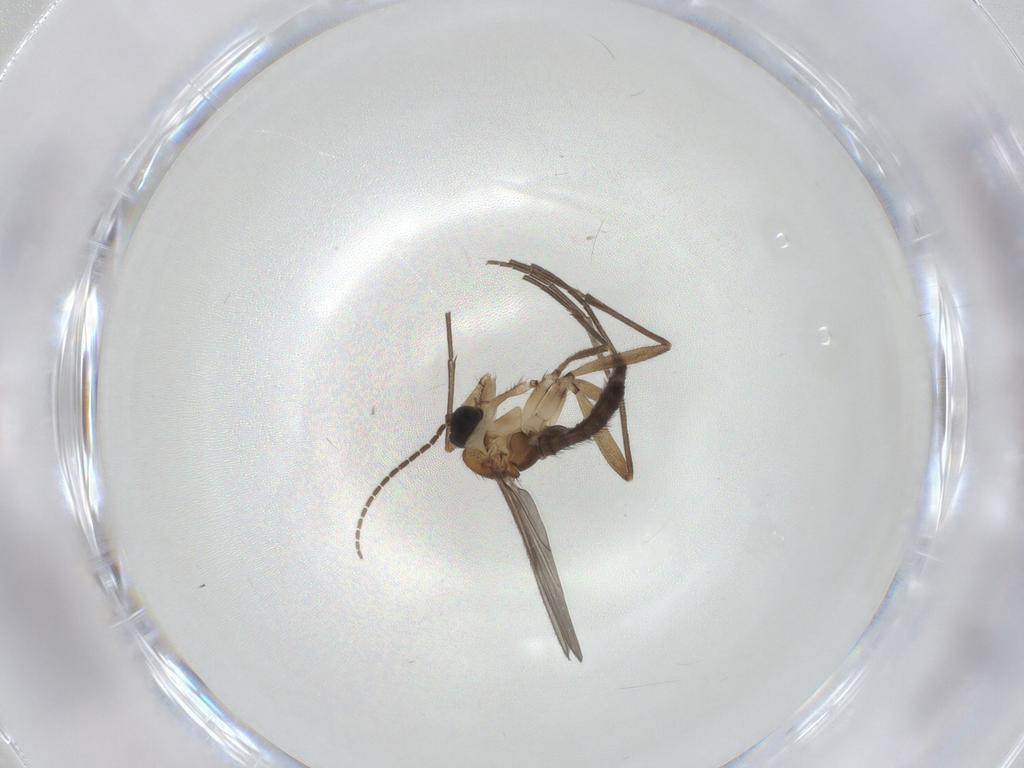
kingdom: Animalia
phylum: Arthropoda
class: Insecta
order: Diptera
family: Sciaridae
